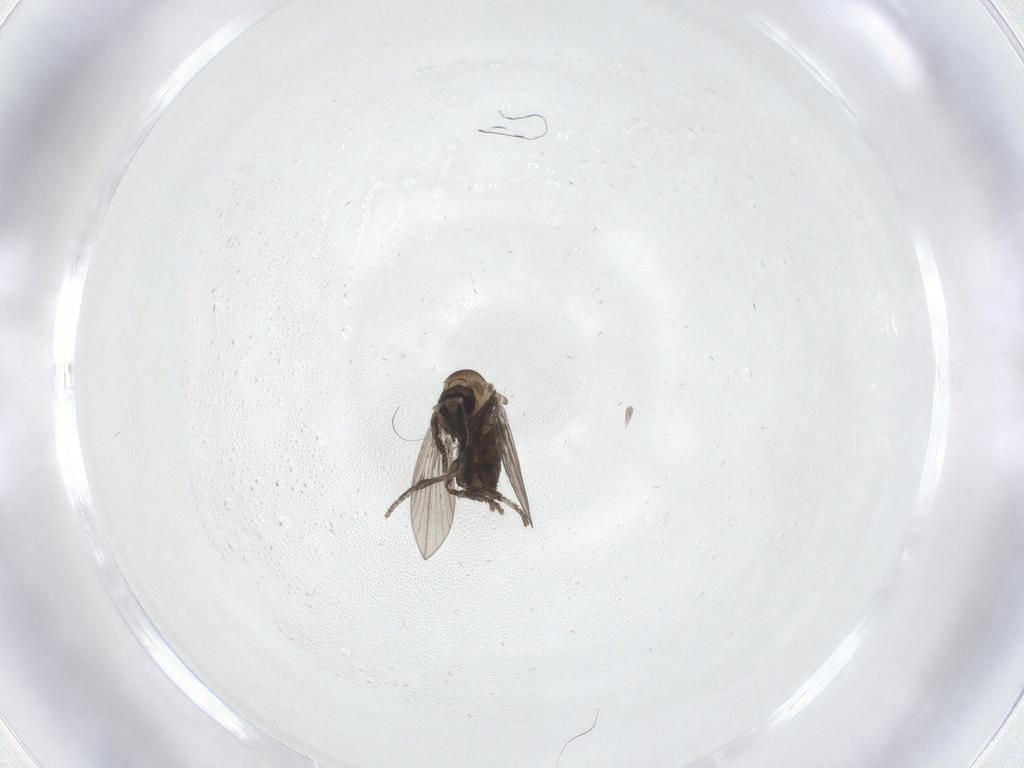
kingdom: Animalia
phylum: Arthropoda
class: Insecta
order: Diptera
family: Psychodidae
